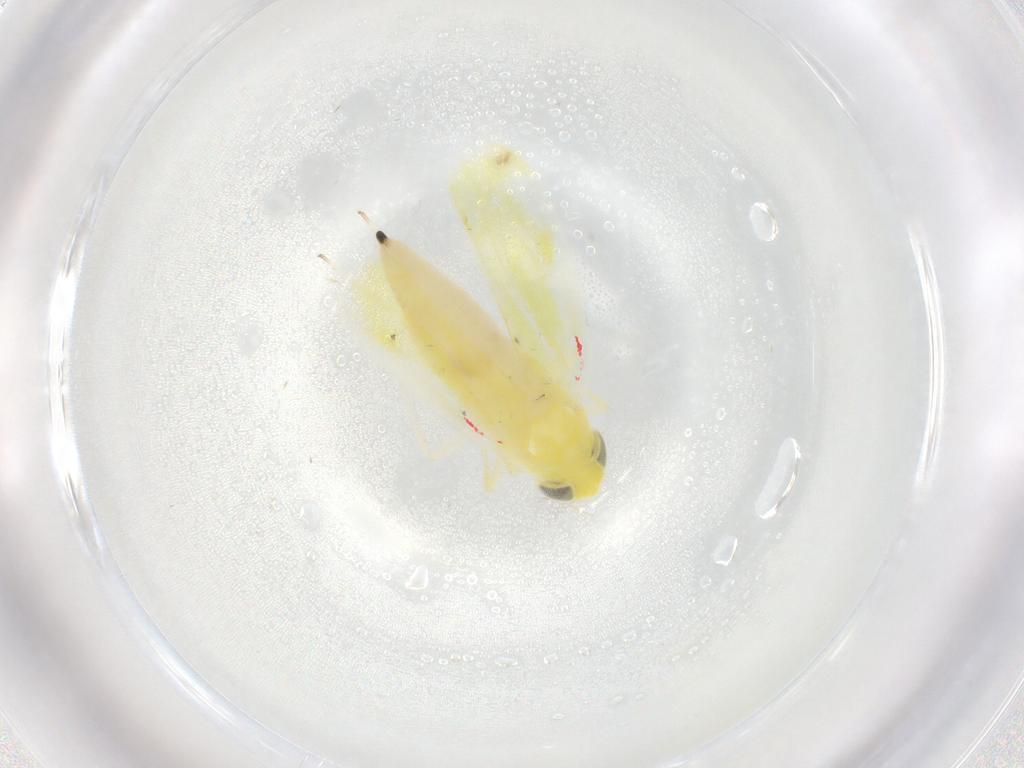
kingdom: Animalia
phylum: Arthropoda
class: Insecta
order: Hemiptera
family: Cicadellidae
